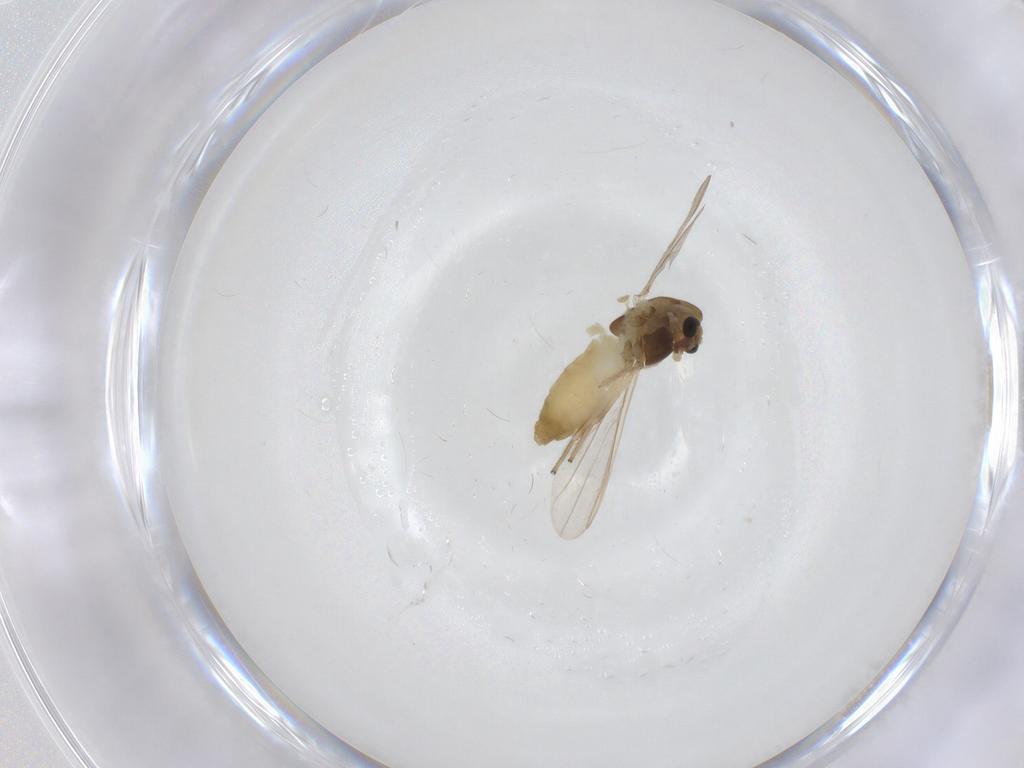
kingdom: Animalia
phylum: Arthropoda
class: Insecta
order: Diptera
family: Chironomidae
